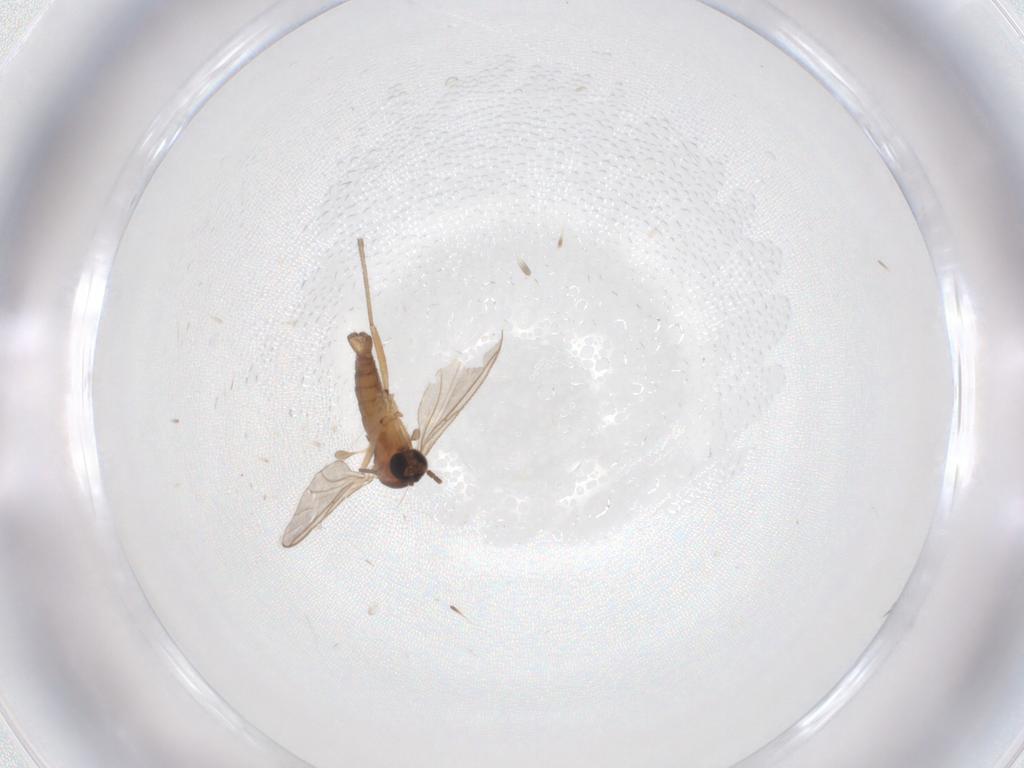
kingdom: Animalia
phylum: Arthropoda
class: Insecta
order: Diptera
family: Sciaridae
